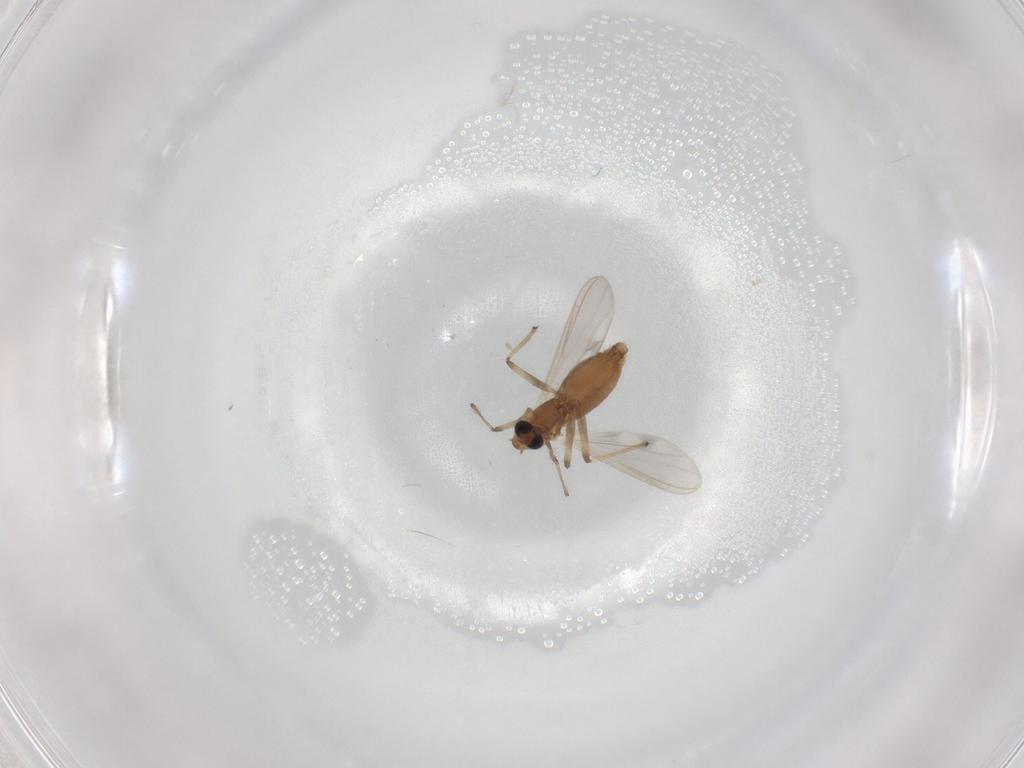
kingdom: Animalia
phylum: Arthropoda
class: Insecta
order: Diptera
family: Chironomidae
